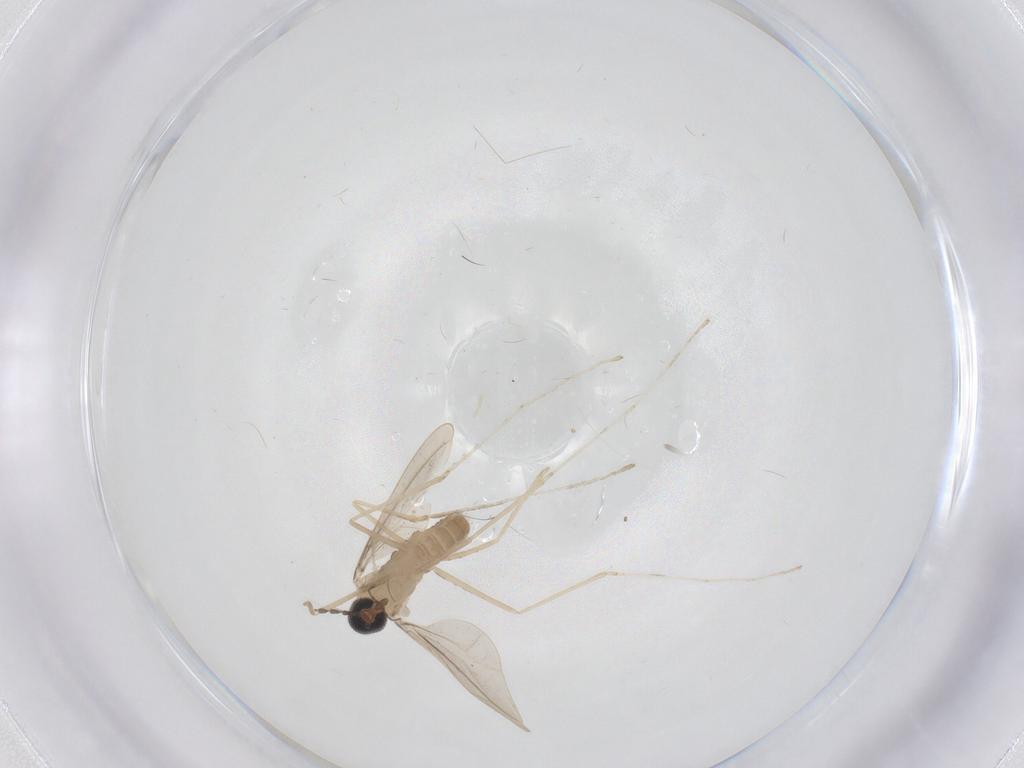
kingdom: Animalia
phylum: Arthropoda
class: Insecta
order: Diptera
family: Cecidomyiidae
